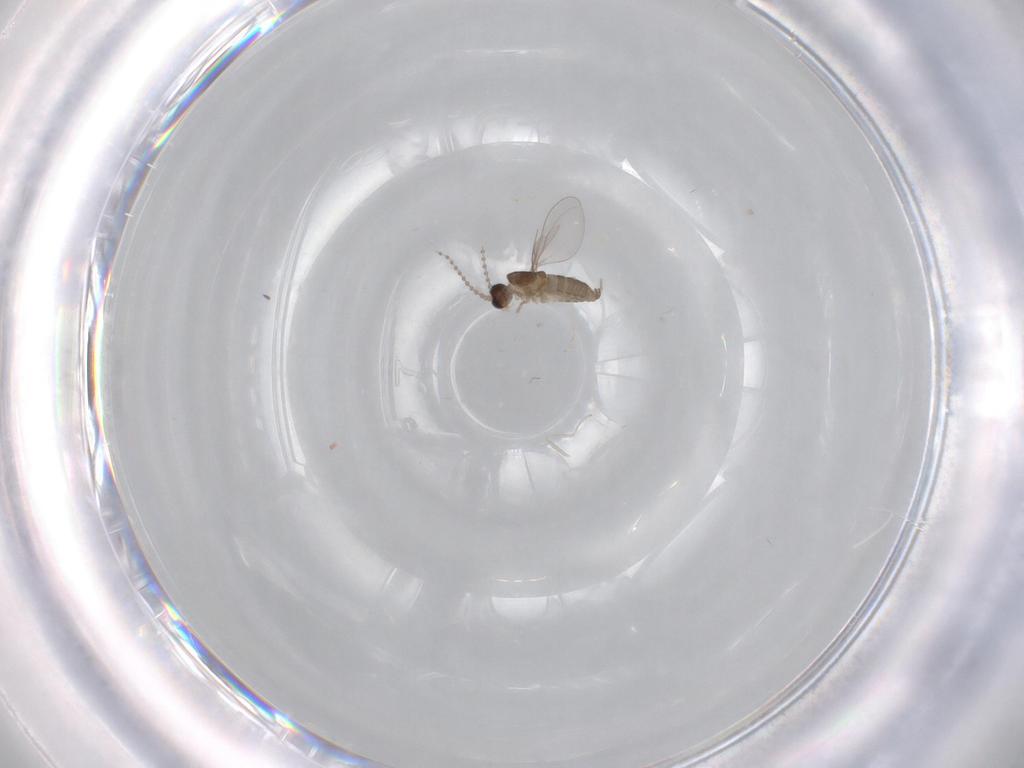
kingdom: Animalia
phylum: Arthropoda
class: Insecta
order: Diptera
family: Cecidomyiidae
